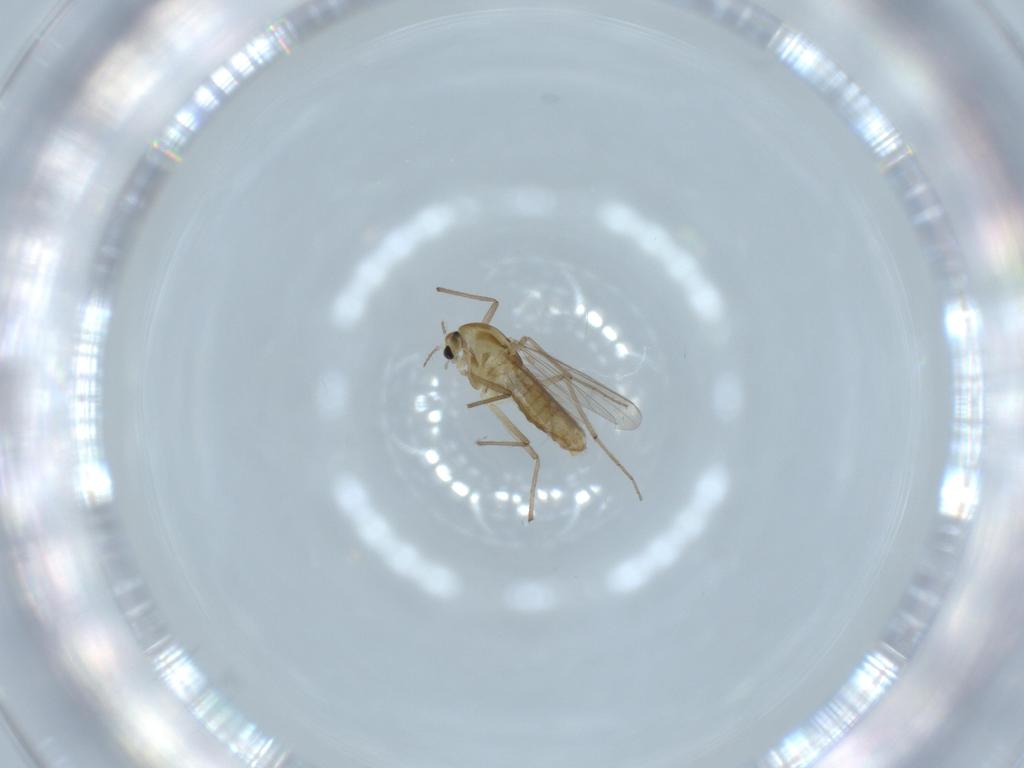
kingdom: Animalia
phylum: Arthropoda
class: Insecta
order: Diptera
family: Chironomidae
